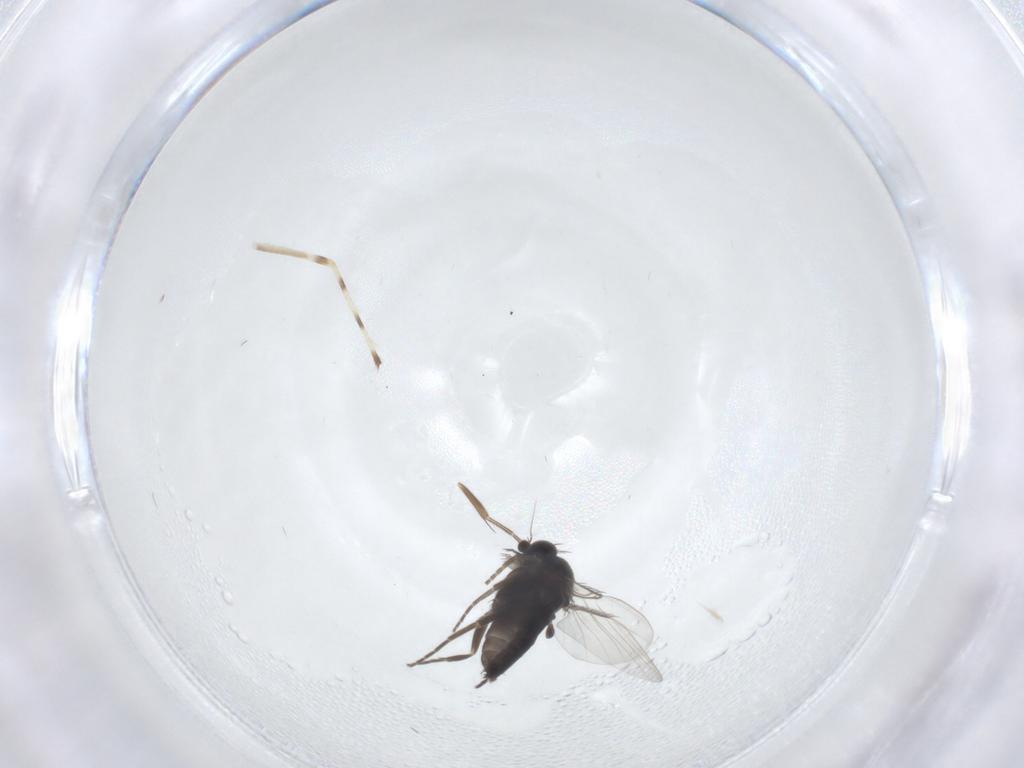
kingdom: Animalia
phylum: Arthropoda
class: Insecta
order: Diptera
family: Phoridae
